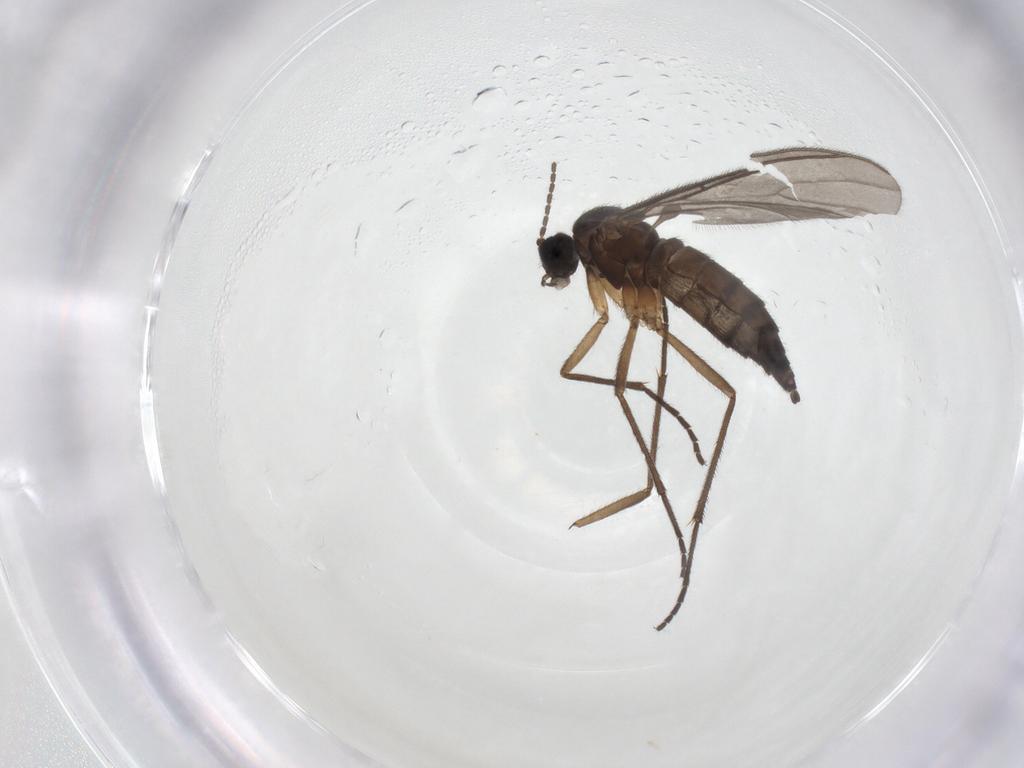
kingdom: Animalia
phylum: Arthropoda
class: Insecta
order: Diptera
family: Sciaridae
